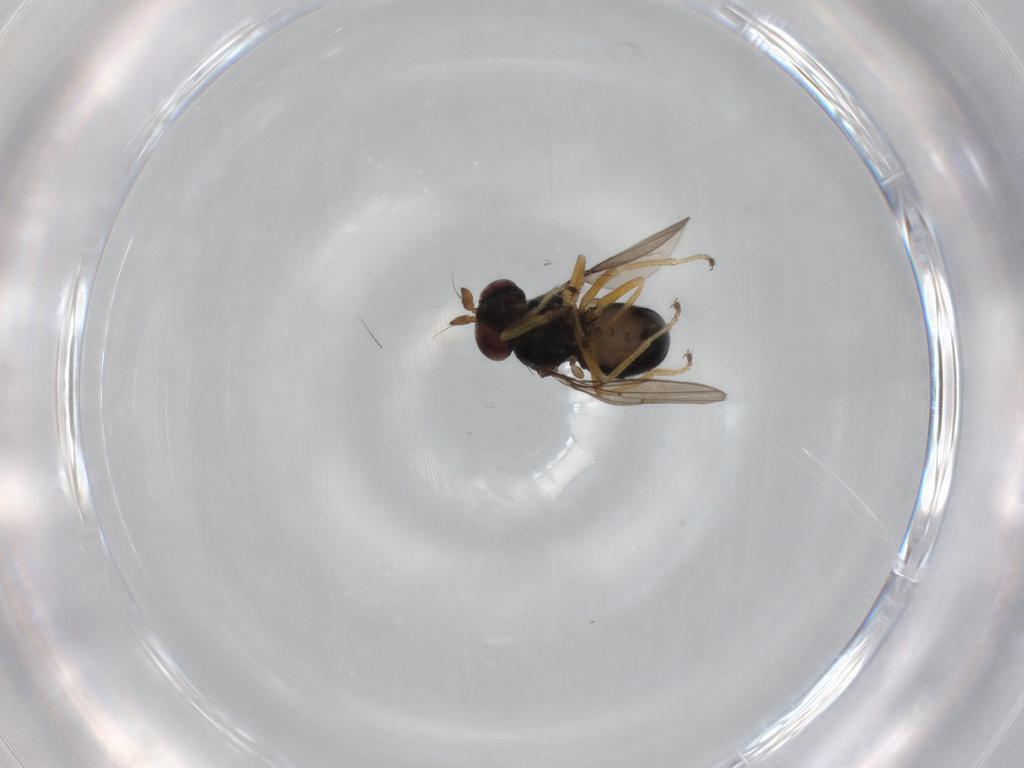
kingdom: Animalia
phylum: Arthropoda
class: Insecta
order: Diptera
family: Ephydridae
